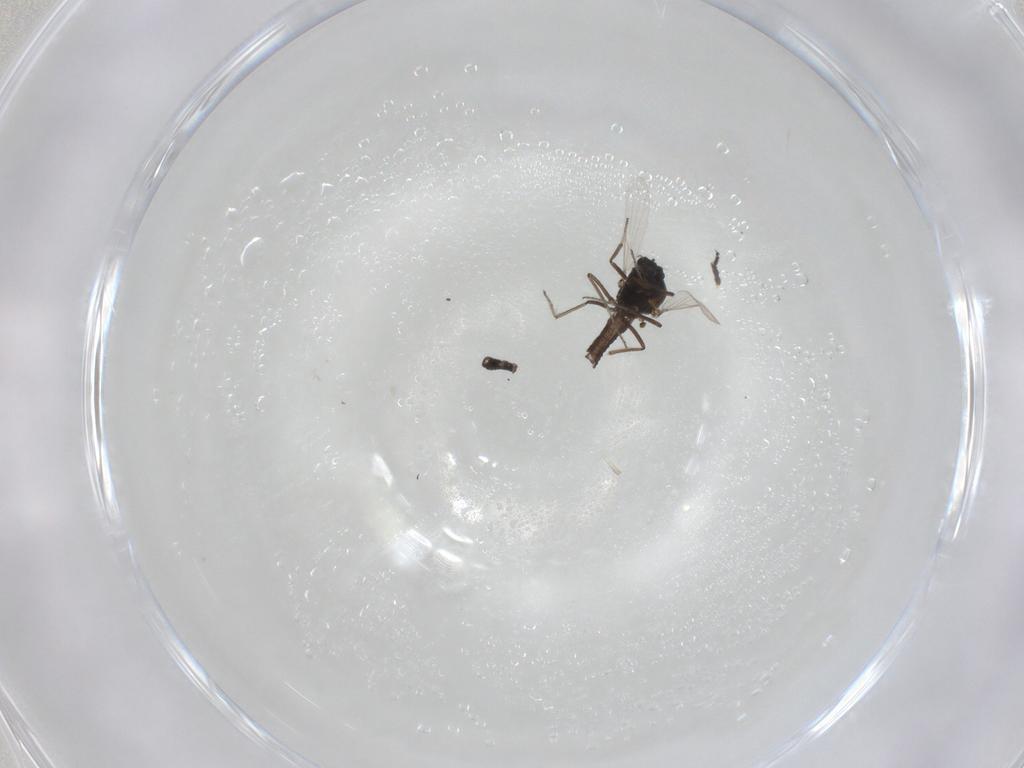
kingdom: Animalia
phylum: Arthropoda
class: Insecta
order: Diptera
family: Ceratopogonidae
